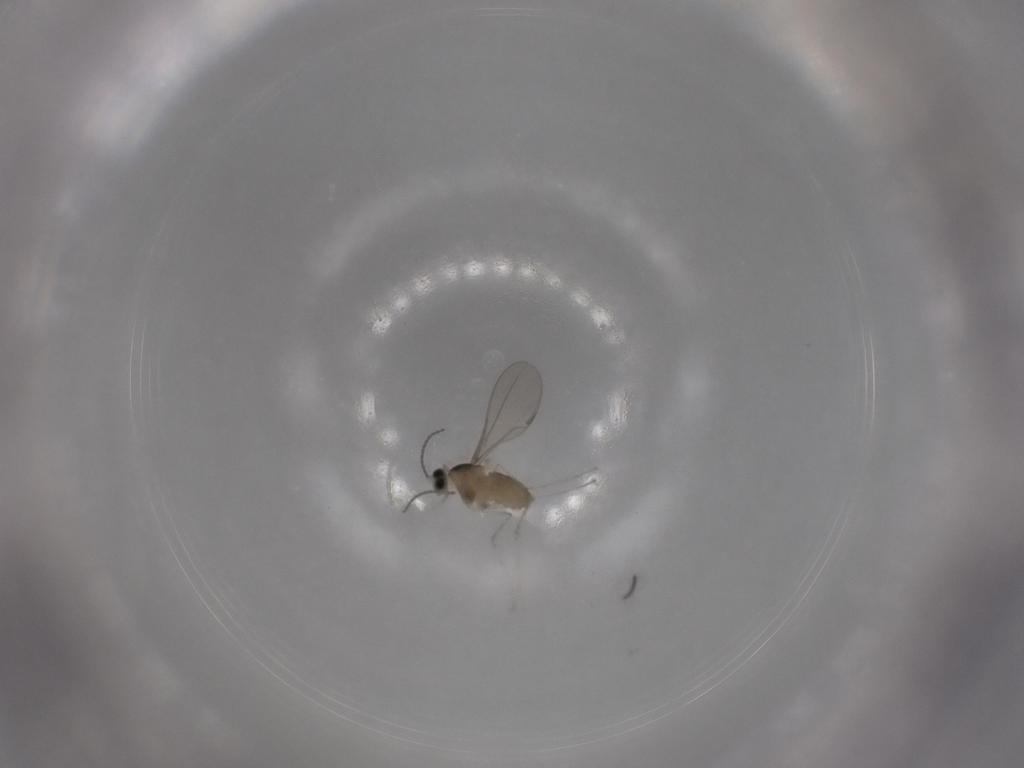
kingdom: Animalia
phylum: Arthropoda
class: Insecta
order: Diptera
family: Cecidomyiidae
